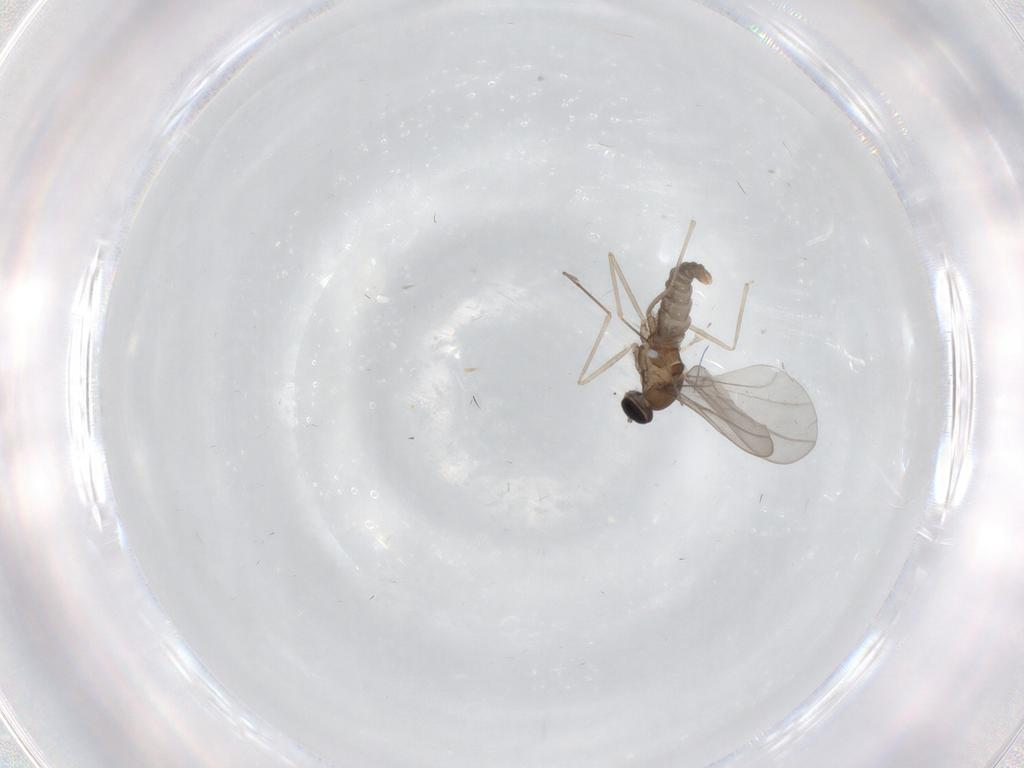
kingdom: Animalia
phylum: Arthropoda
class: Insecta
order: Diptera
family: Cecidomyiidae
